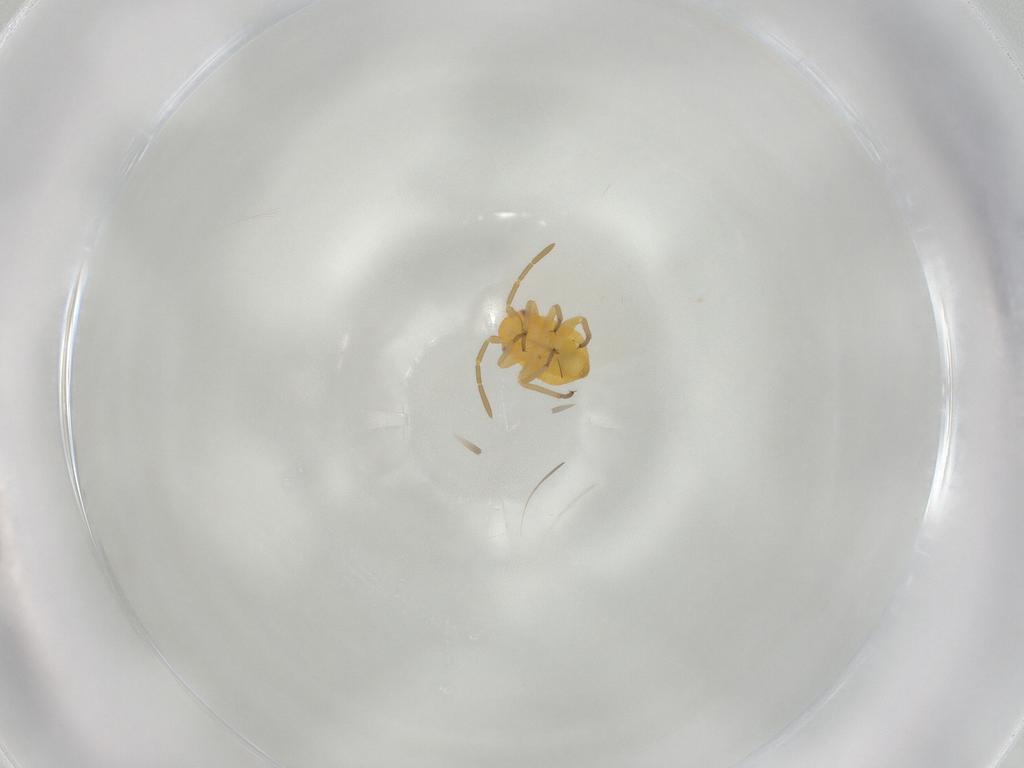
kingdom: Animalia
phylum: Arthropoda
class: Insecta
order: Hemiptera
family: Miridae
